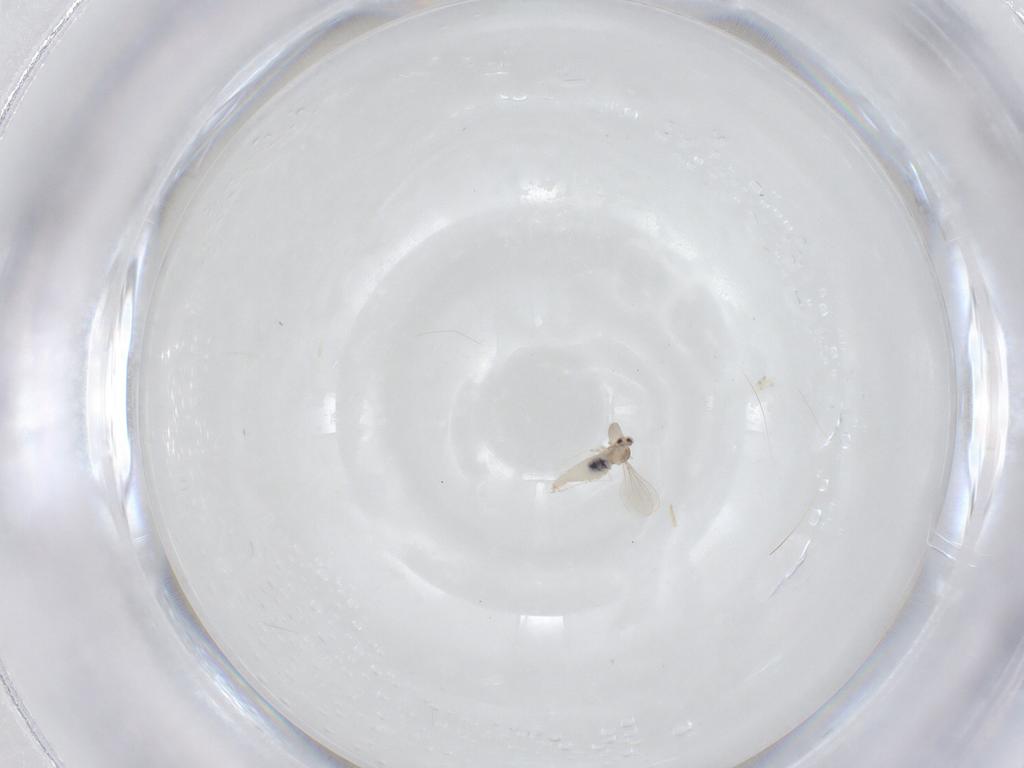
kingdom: Animalia
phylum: Arthropoda
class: Insecta
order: Diptera
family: Cecidomyiidae
